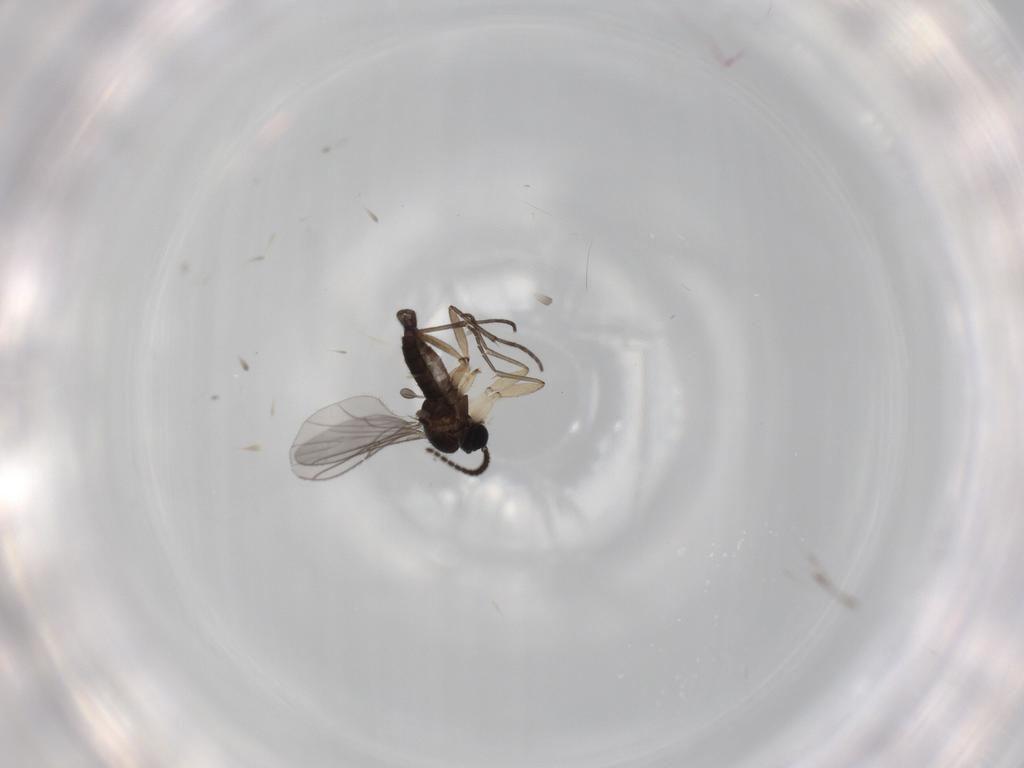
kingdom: Animalia
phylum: Arthropoda
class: Insecta
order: Diptera
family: Sciaridae
